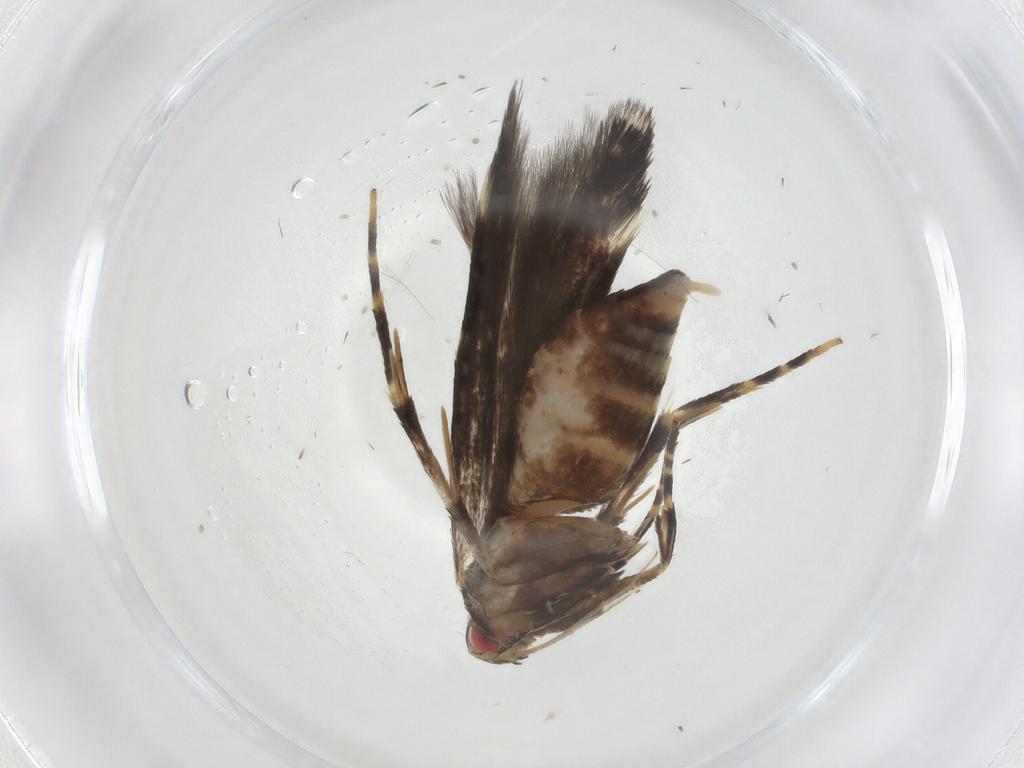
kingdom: Animalia
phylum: Arthropoda
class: Insecta
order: Lepidoptera
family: Cosmopterigidae
